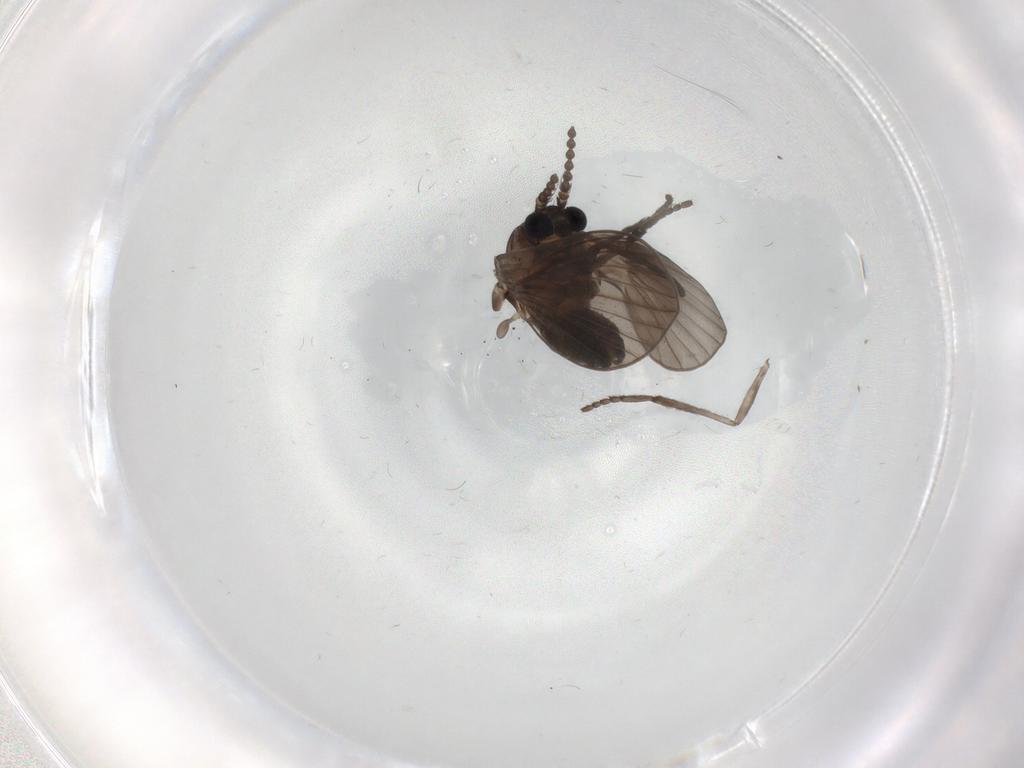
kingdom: Animalia
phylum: Arthropoda
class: Insecta
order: Diptera
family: Psychodidae
